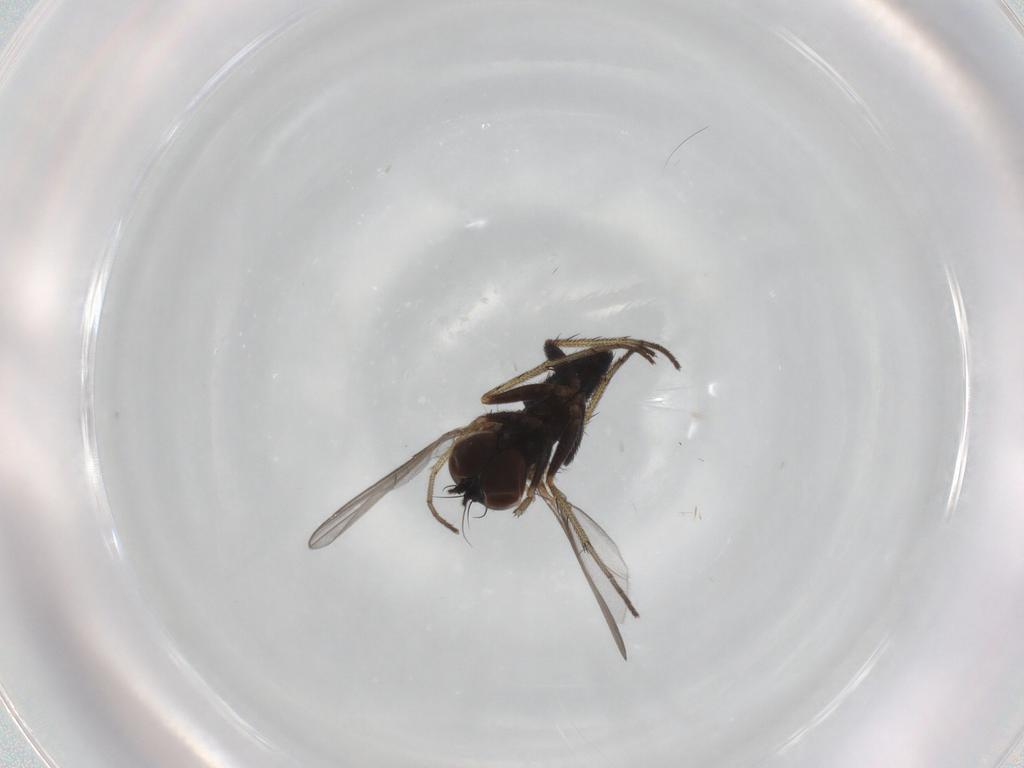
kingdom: Animalia
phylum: Arthropoda
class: Insecta
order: Diptera
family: Dolichopodidae
